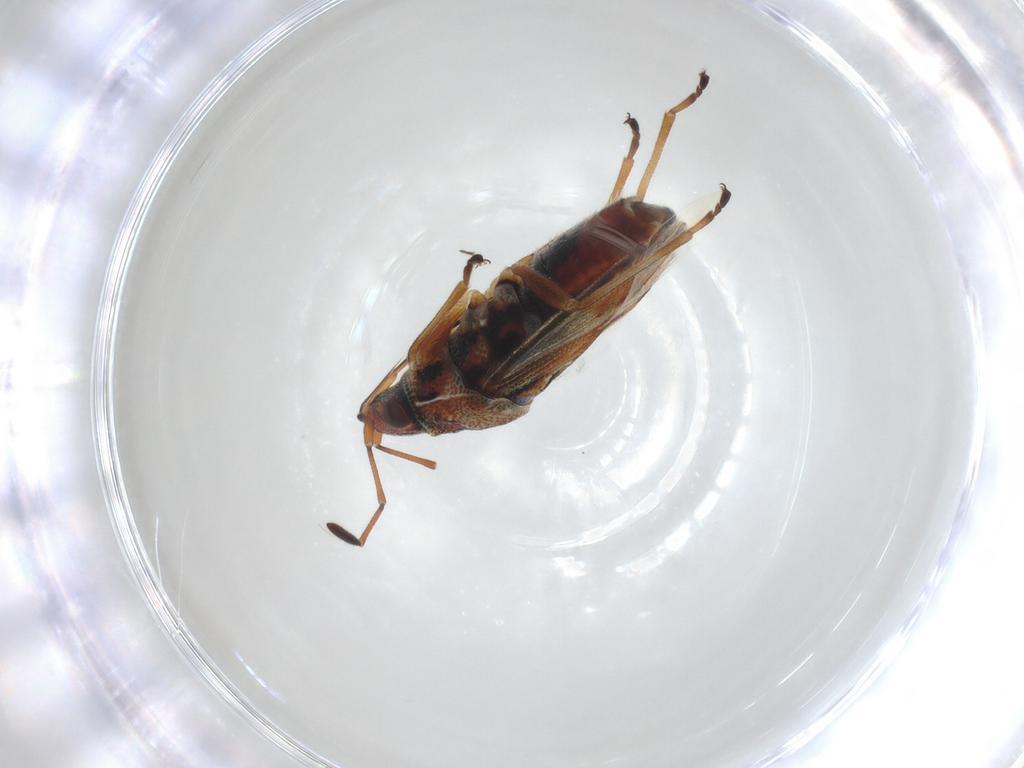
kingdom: Animalia
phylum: Arthropoda
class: Insecta
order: Hemiptera
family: Lygaeidae
